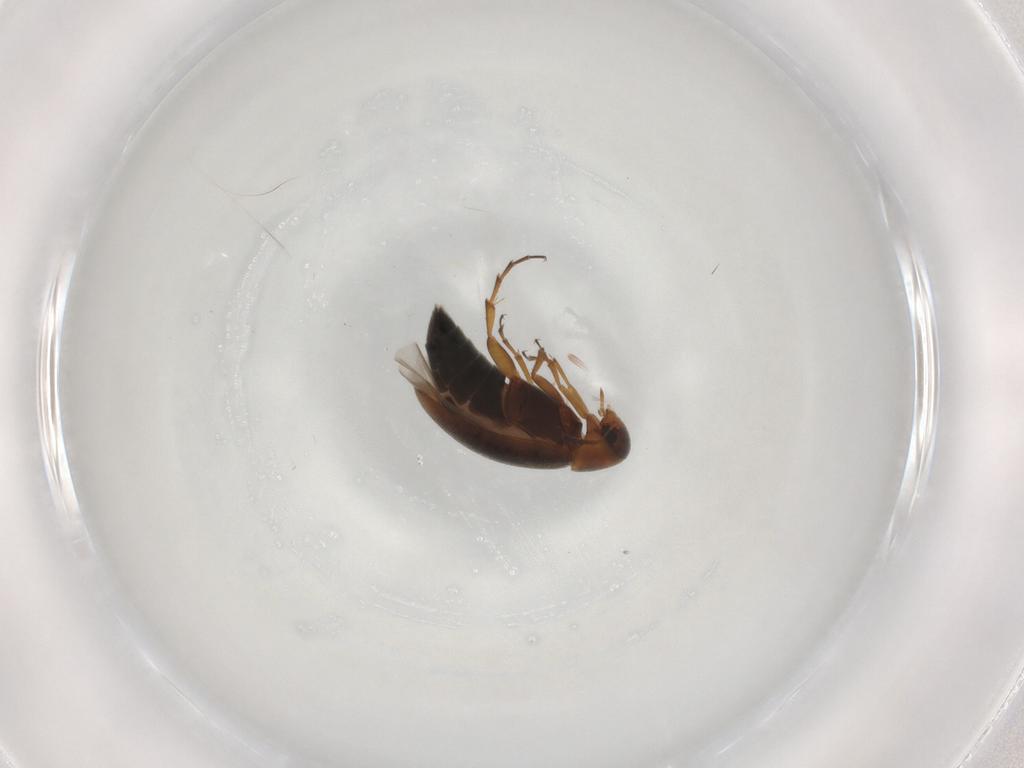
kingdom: Animalia
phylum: Arthropoda
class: Insecta
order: Coleoptera
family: Scraptiidae
